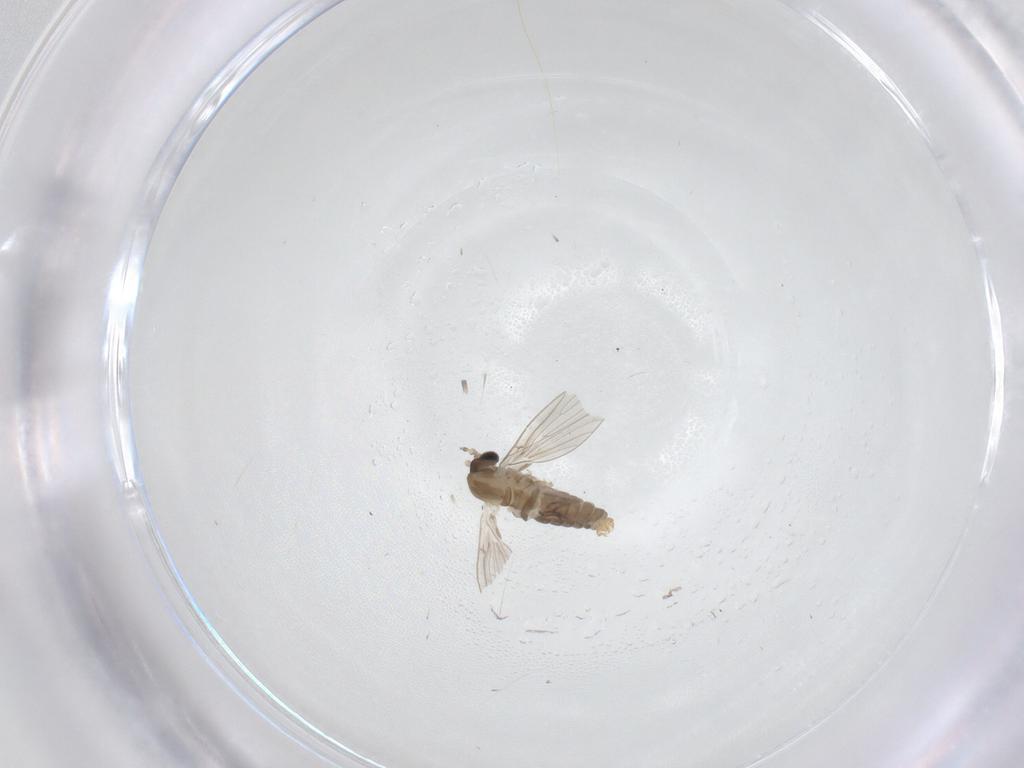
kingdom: Animalia
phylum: Arthropoda
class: Insecta
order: Diptera
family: Psychodidae
